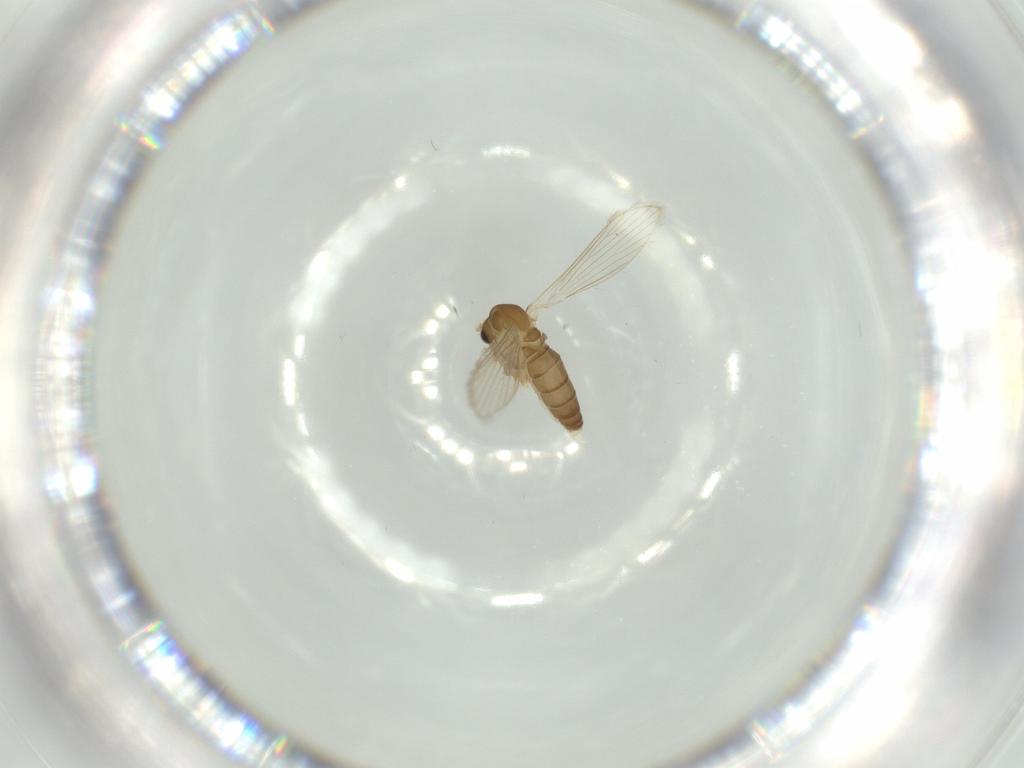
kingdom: Animalia
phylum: Arthropoda
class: Insecta
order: Diptera
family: Psychodidae
